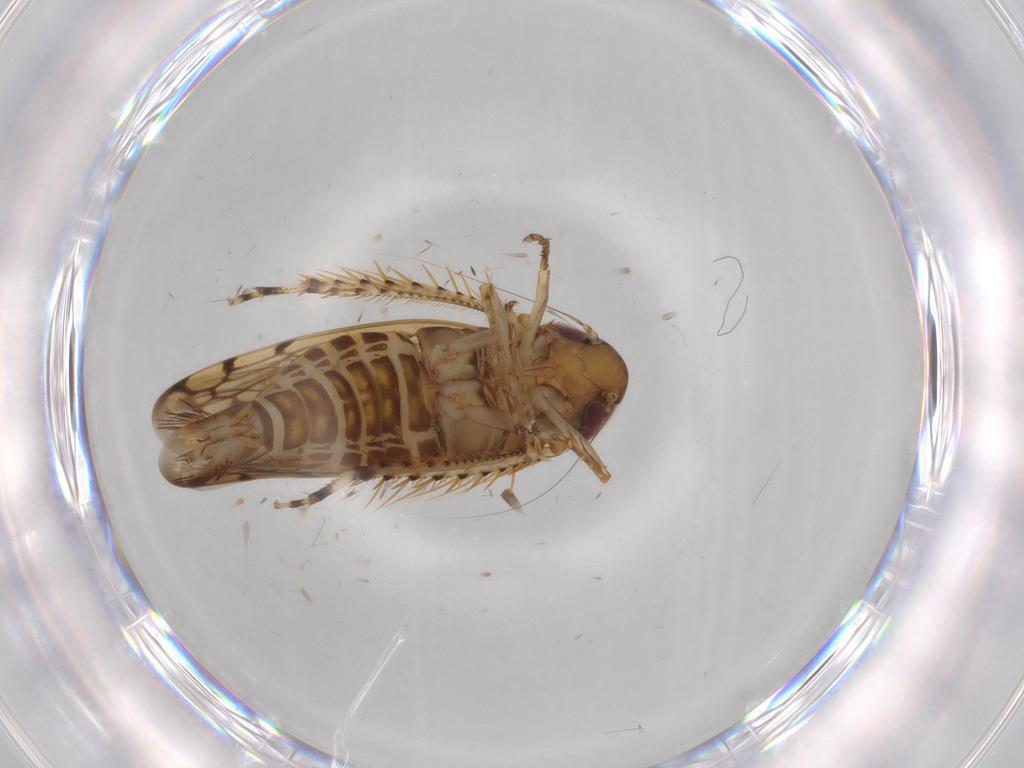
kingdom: Animalia
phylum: Arthropoda
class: Insecta
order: Hemiptera
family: Cicadellidae
